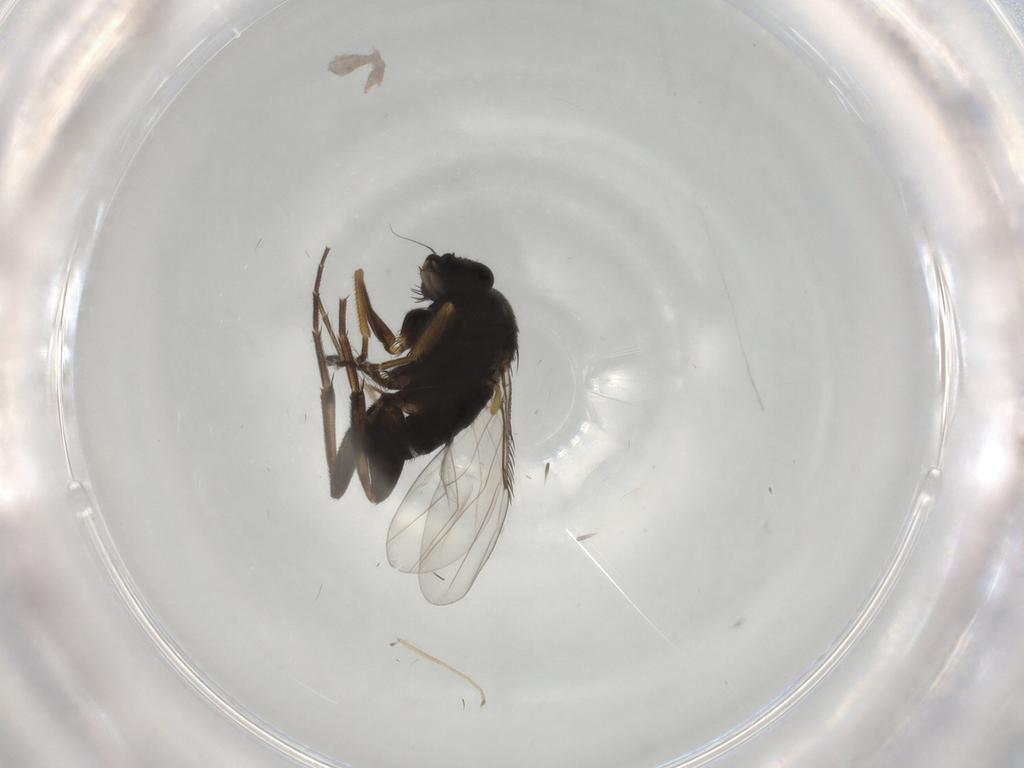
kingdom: Animalia
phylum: Arthropoda
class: Insecta
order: Diptera
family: Phoridae
